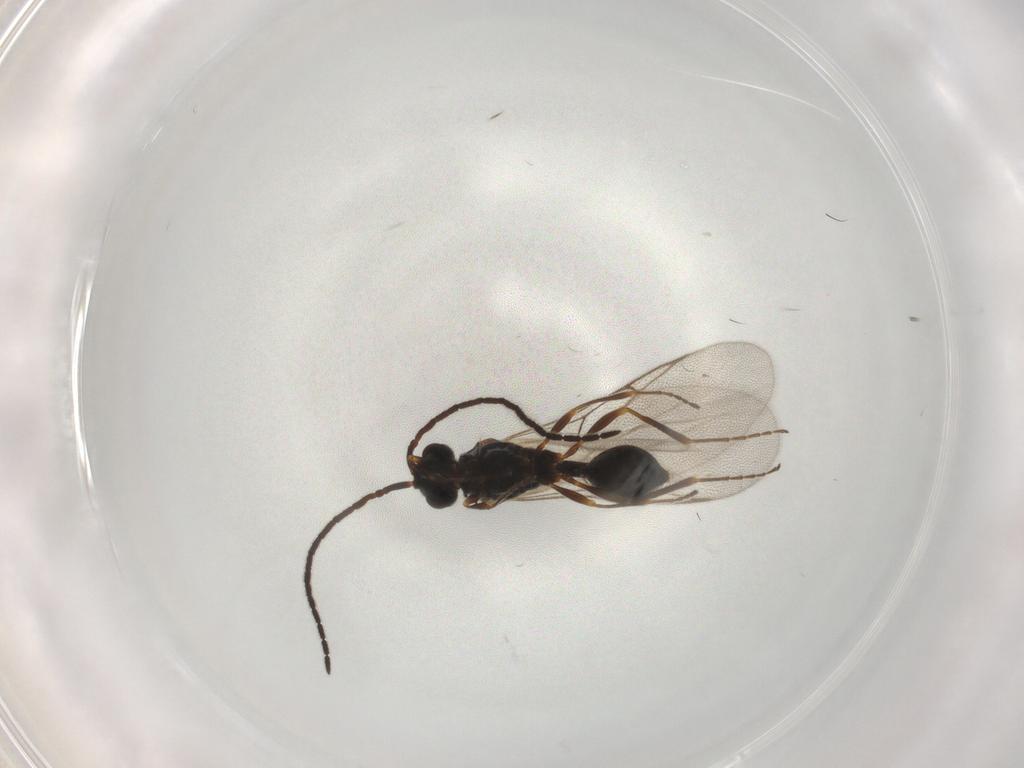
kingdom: Animalia
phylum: Arthropoda
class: Insecta
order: Hymenoptera
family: Diapriidae
